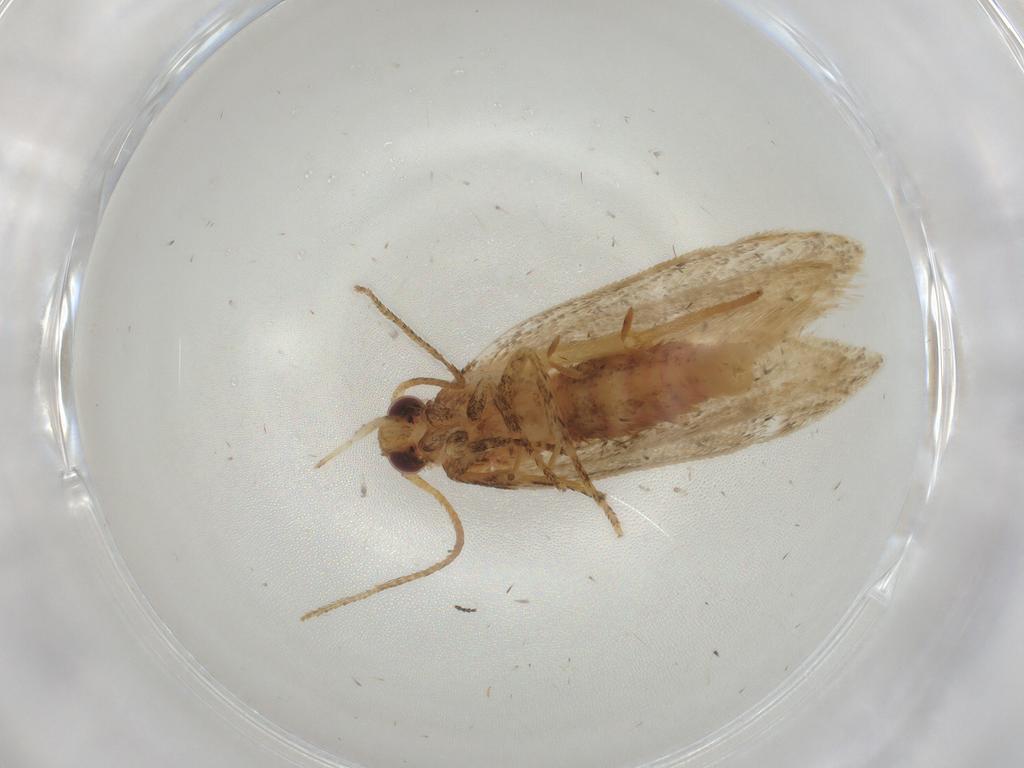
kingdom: Animalia
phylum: Arthropoda
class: Insecta
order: Lepidoptera
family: Blastobasidae
